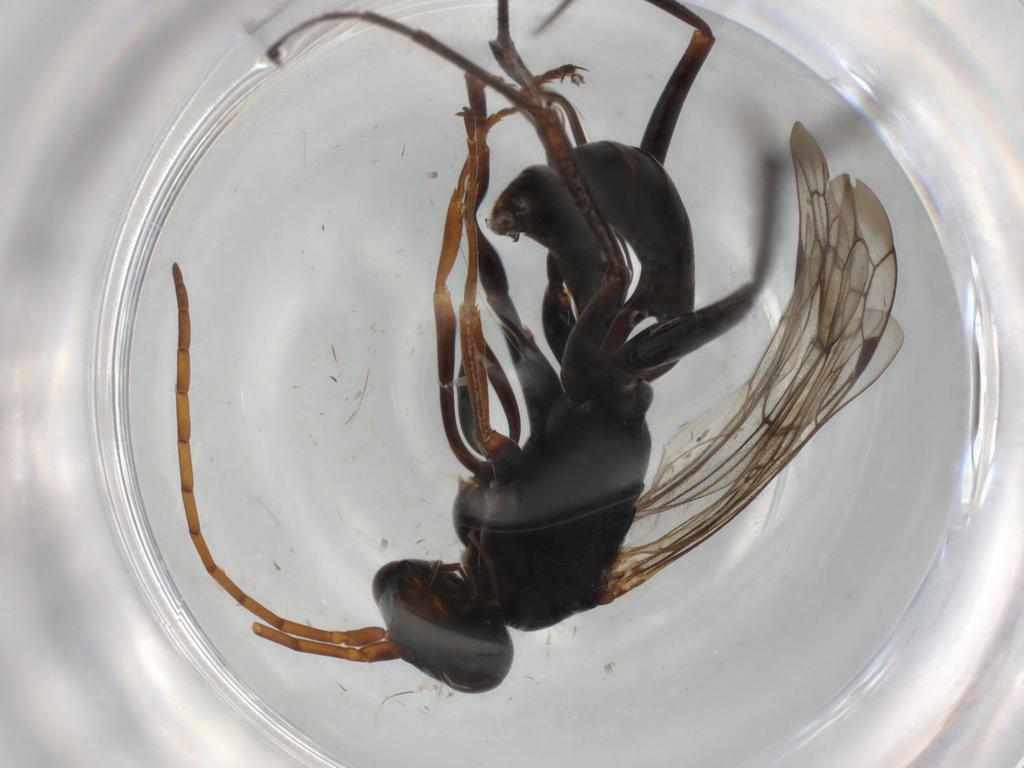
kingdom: Animalia
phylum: Arthropoda
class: Insecta
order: Hymenoptera
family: Pompilidae
